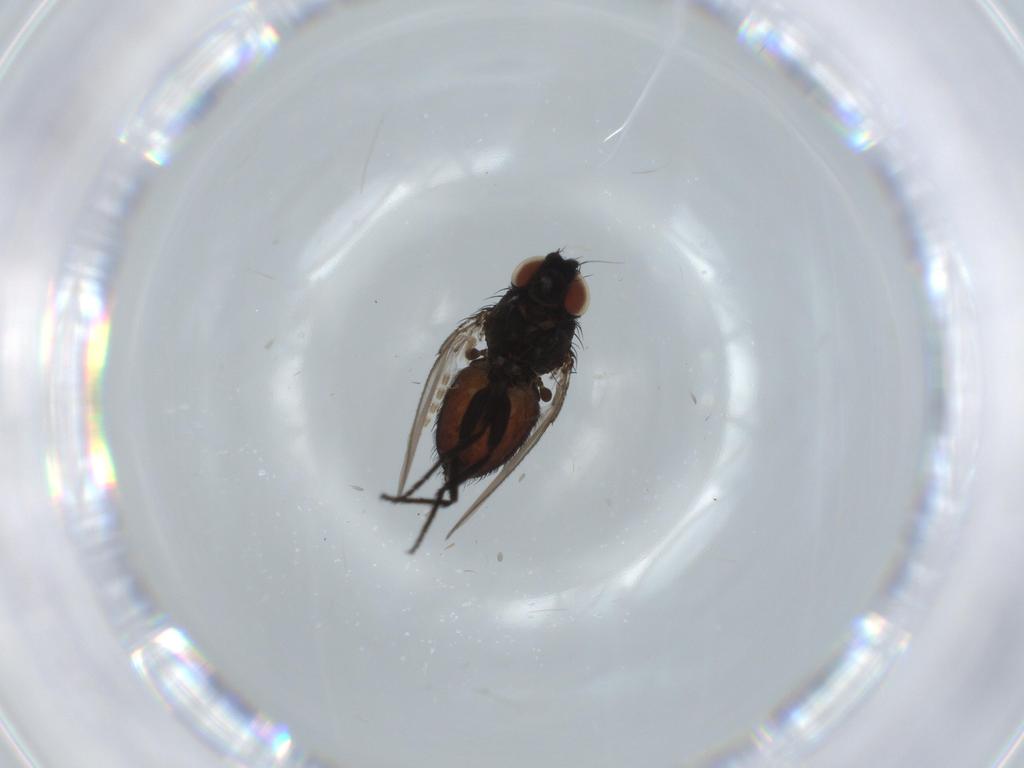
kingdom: Animalia
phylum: Arthropoda
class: Insecta
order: Diptera
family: Milichiidae
